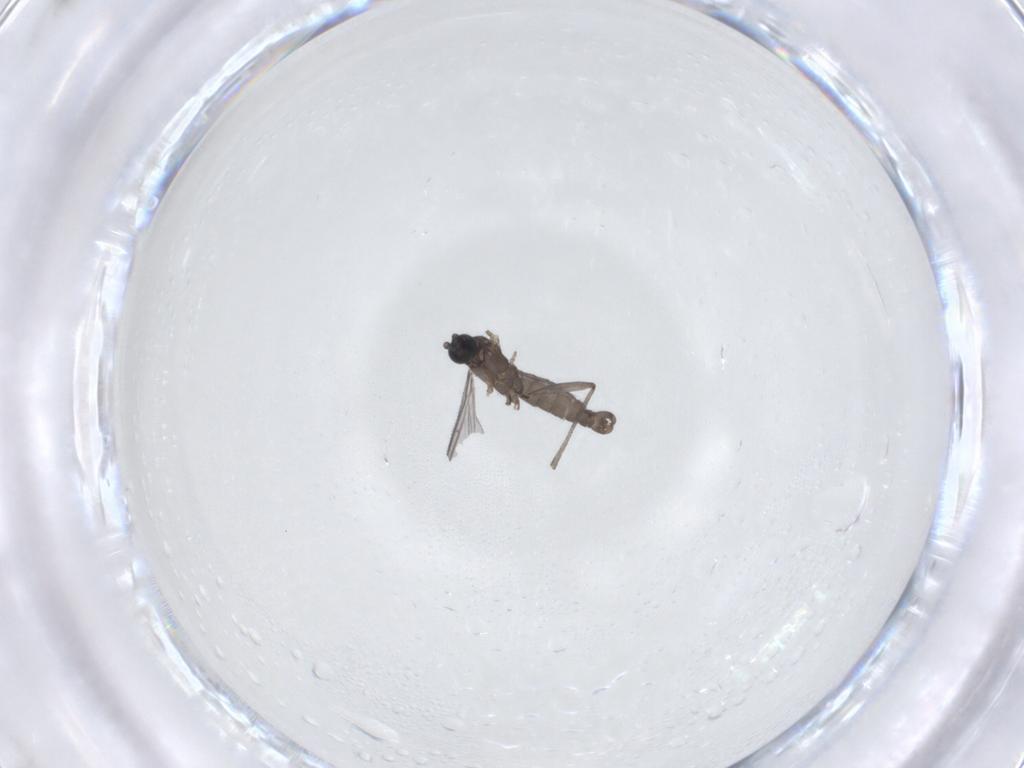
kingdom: Animalia
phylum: Arthropoda
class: Insecta
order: Diptera
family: Chironomidae
